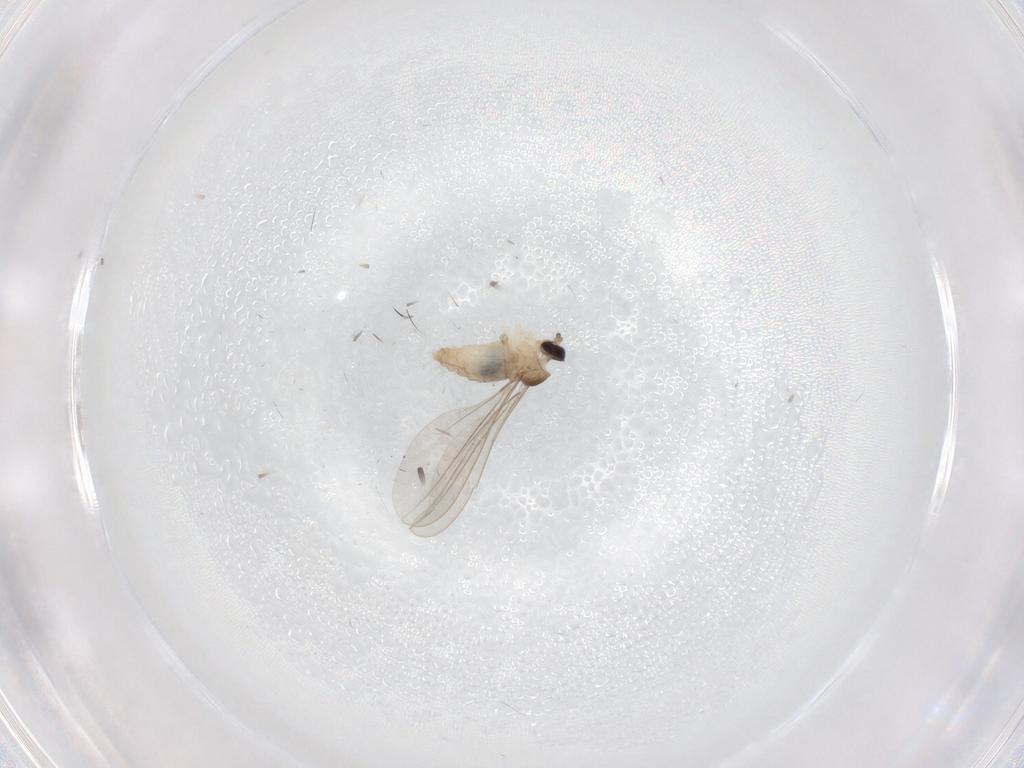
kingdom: Animalia
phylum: Arthropoda
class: Insecta
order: Diptera
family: Cecidomyiidae
